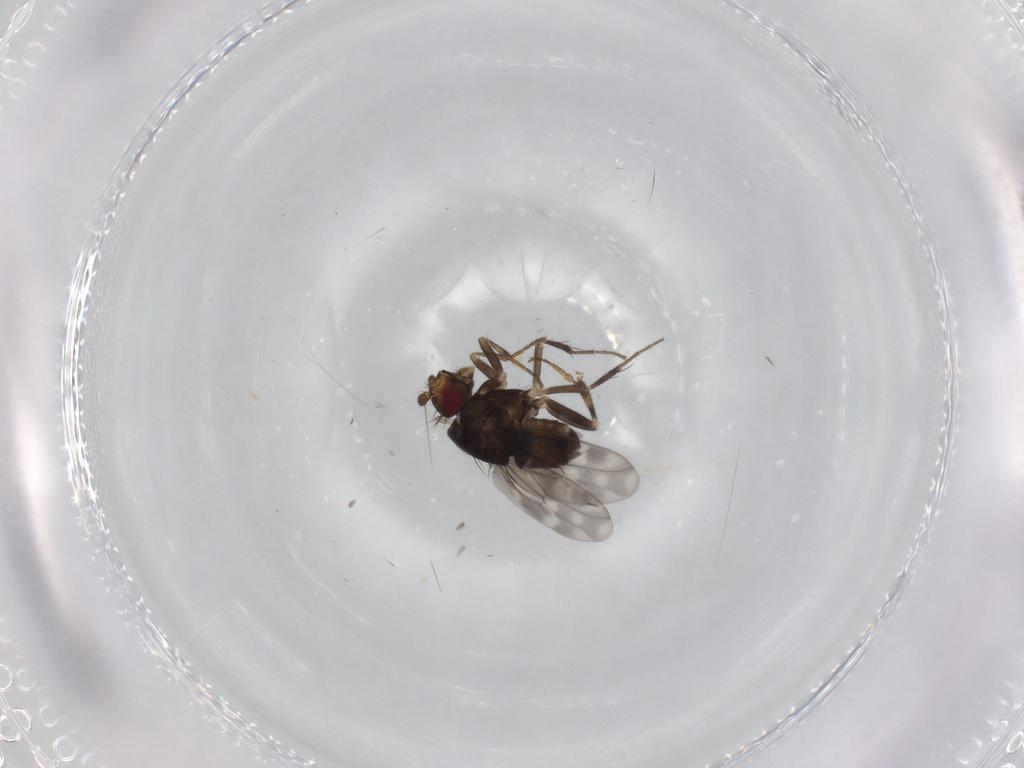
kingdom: Animalia
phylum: Arthropoda
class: Insecta
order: Diptera
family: Sphaeroceridae
